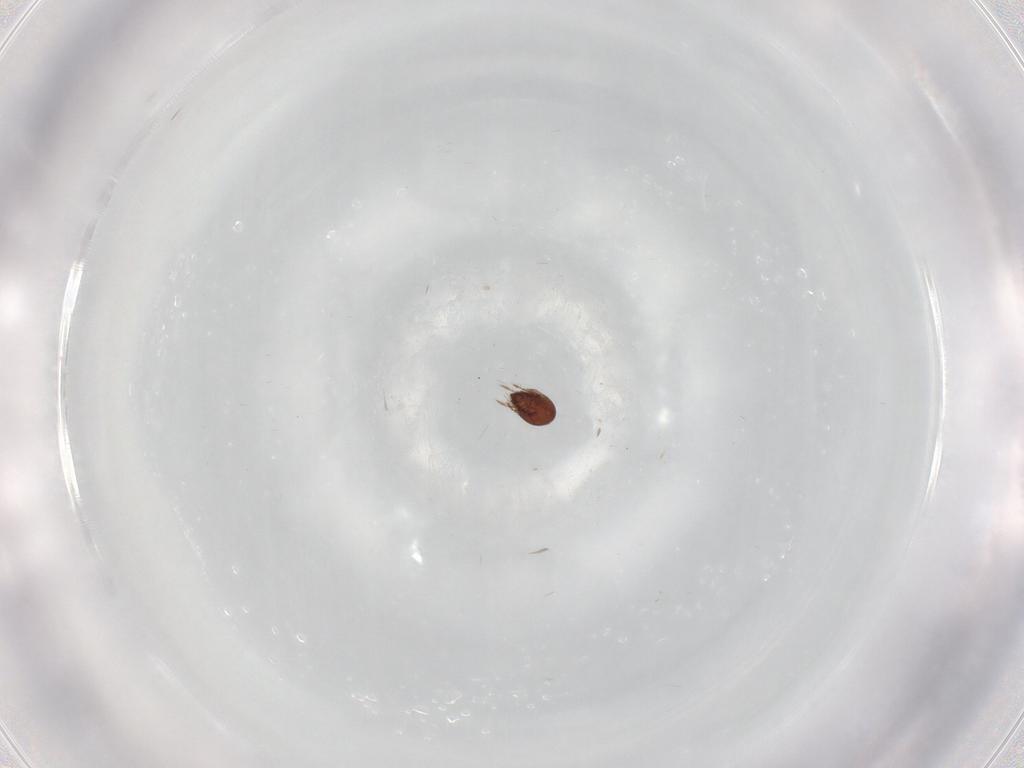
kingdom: Animalia
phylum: Arthropoda
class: Arachnida
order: Sarcoptiformes
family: Ceratozetidae
